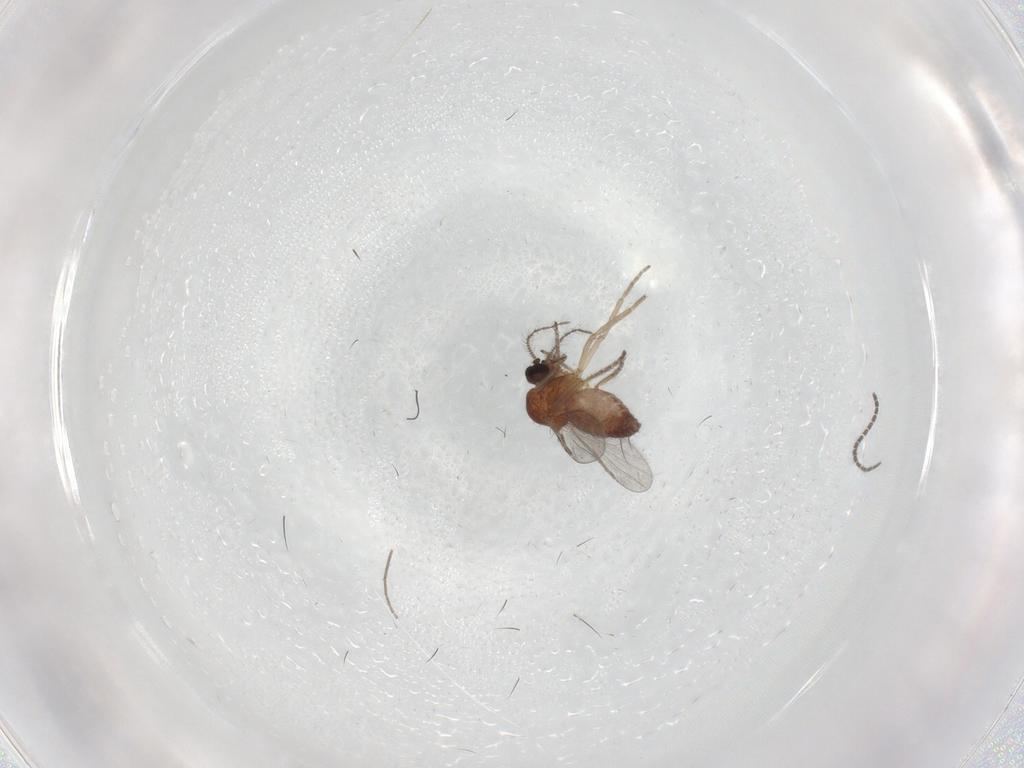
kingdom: Animalia
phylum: Arthropoda
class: Insecta
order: Diptera
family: Ceratopogonidae
